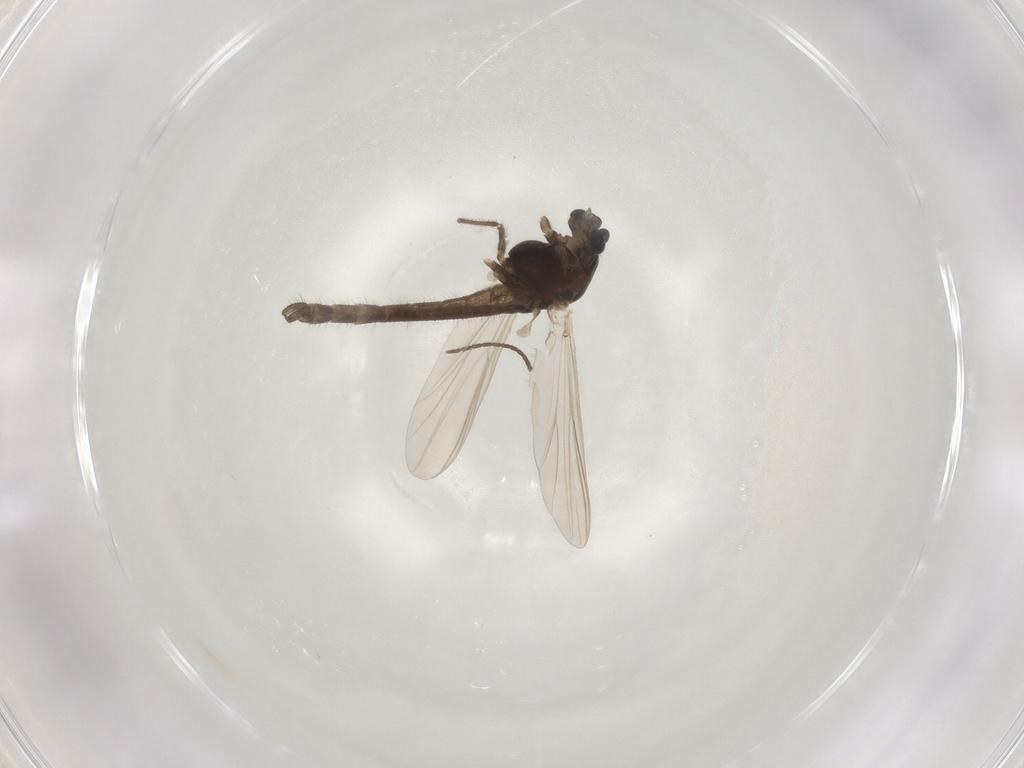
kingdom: Animalia
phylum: Arthropoda
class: Insecta
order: Diptera
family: Chironomidae
